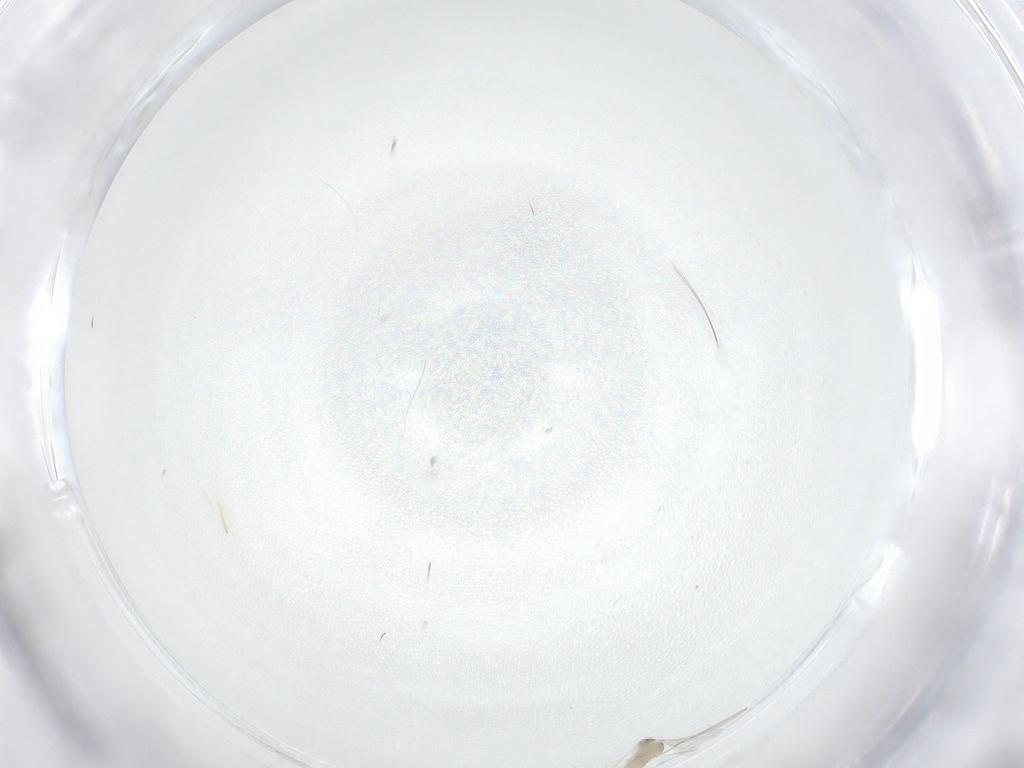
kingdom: Animalia
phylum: Arthropoda
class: Insecta
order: Diptera
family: Cecidomyiidae
